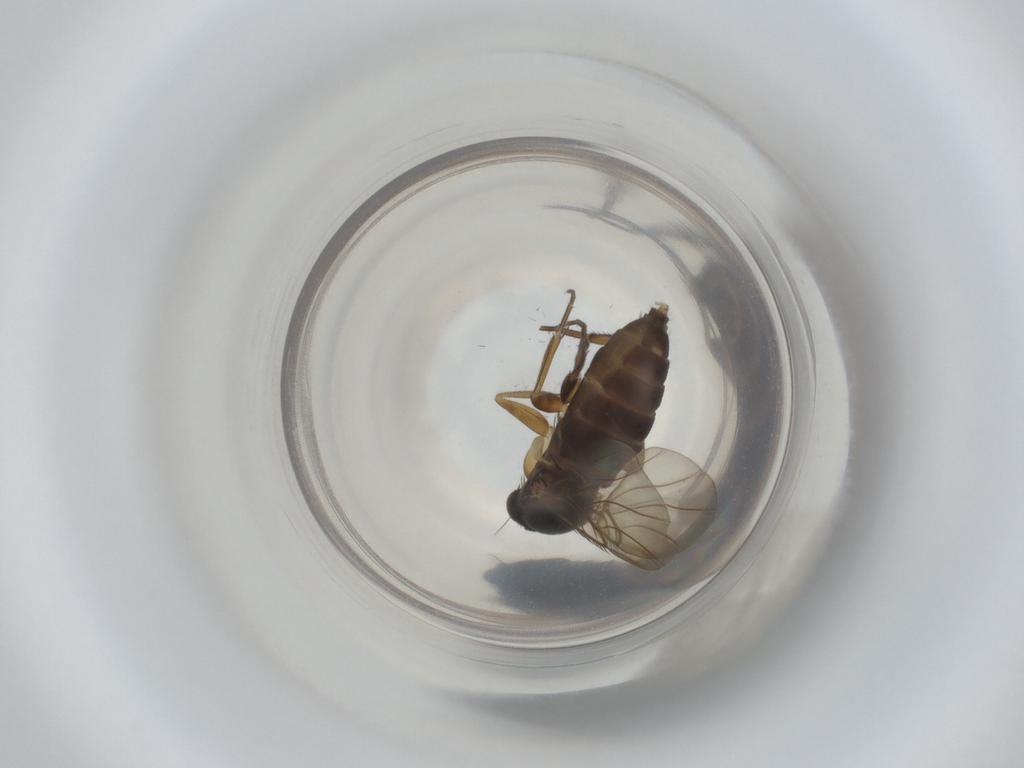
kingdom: Animalia
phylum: Arthropoda
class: Insecta
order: Diptera
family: Phoridae
